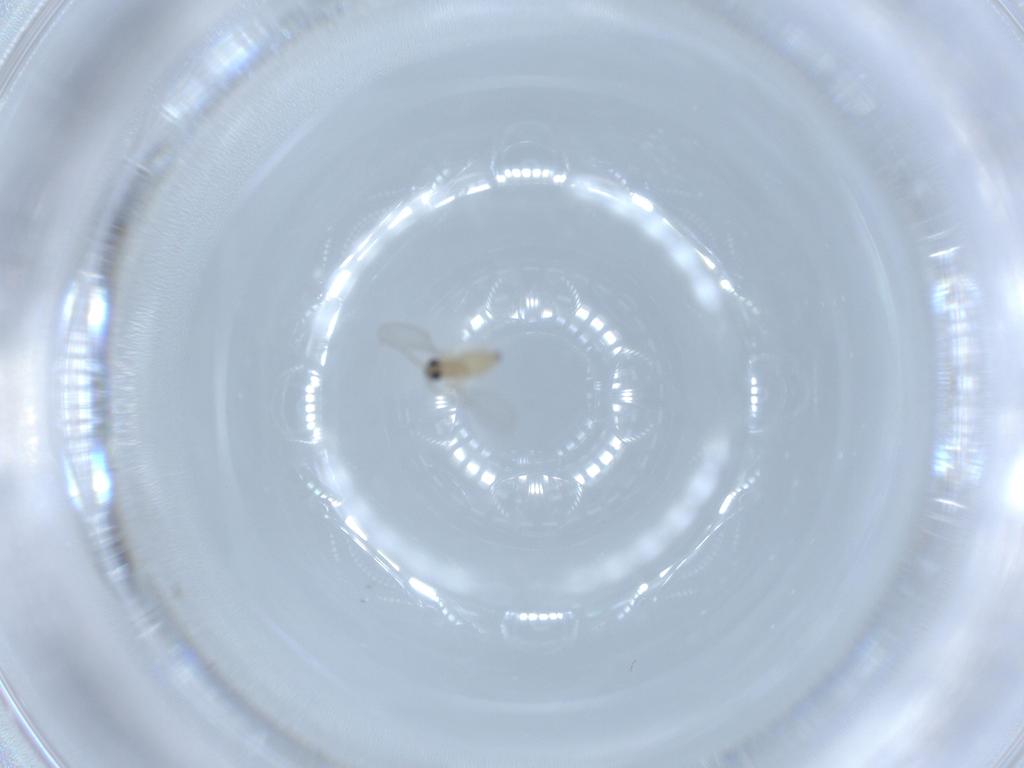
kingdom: Animalia
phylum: Arthropoda
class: Insecta
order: Diptera
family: Cecidomyiidae
